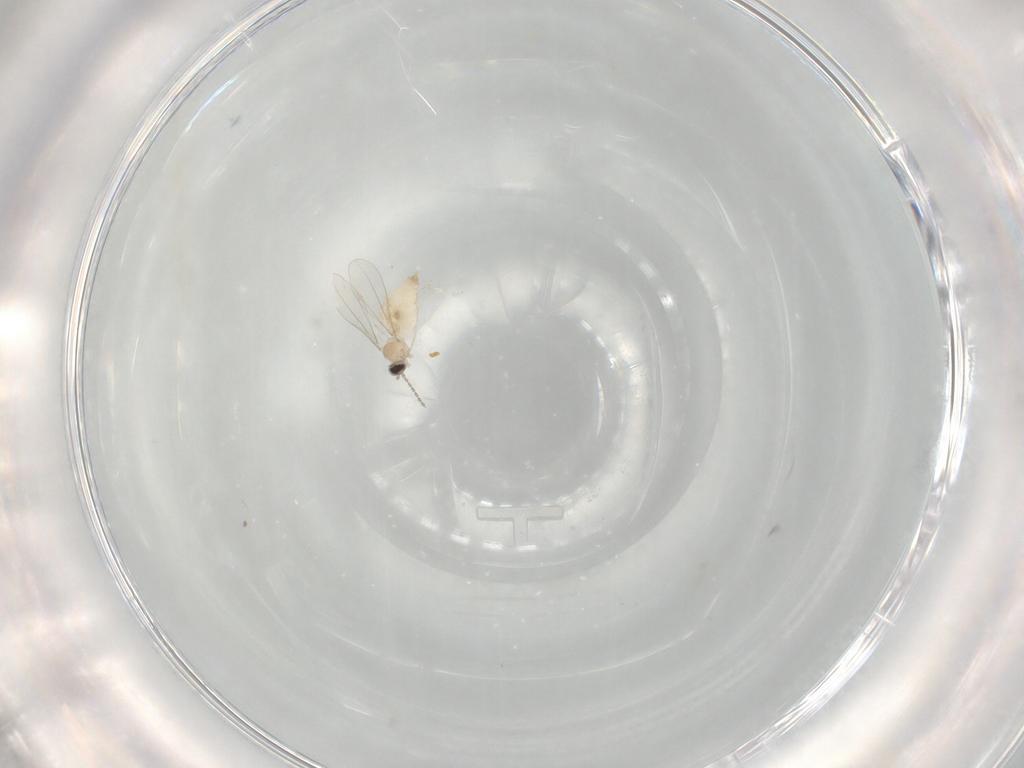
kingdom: Animalia
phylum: Arthropoda
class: Insecta
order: Diptera
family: Cecidomyiidae
